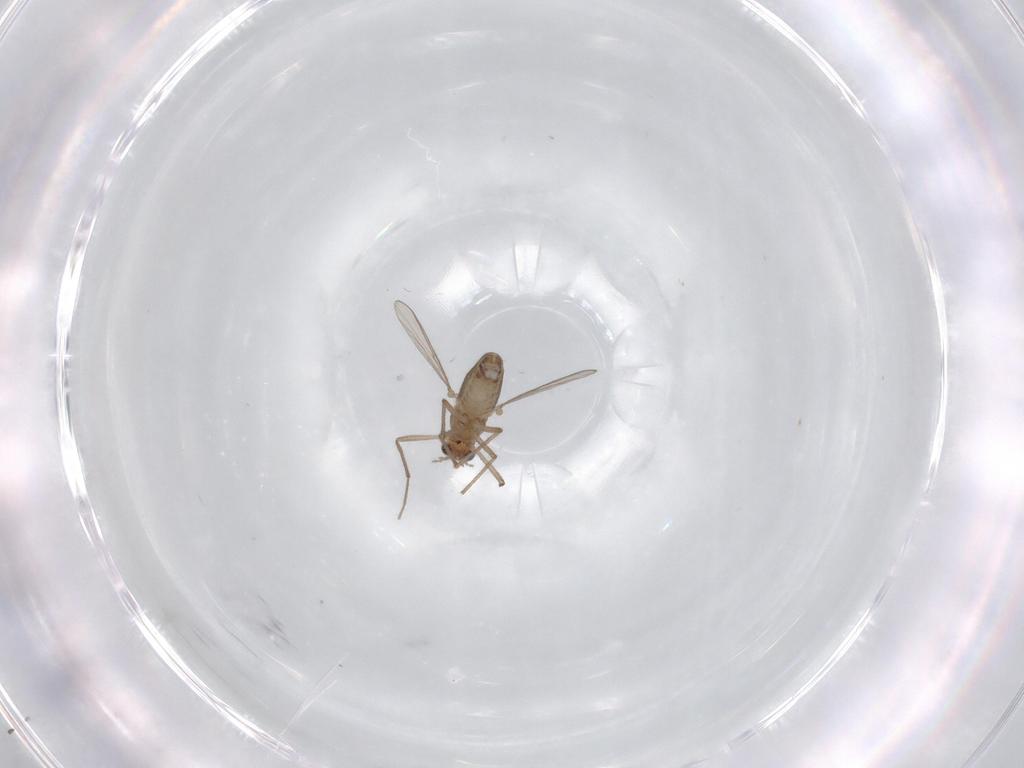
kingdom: Animalia
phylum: Arthropoda
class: Insecta
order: Diptera
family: Chironomidae
